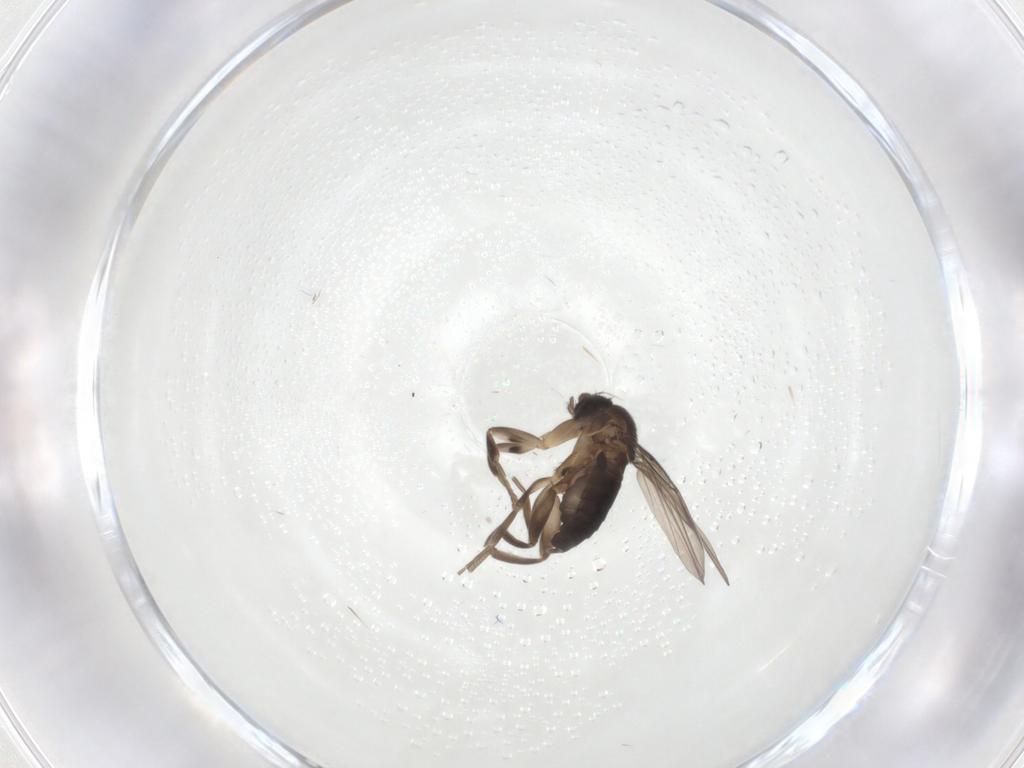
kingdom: Animalia
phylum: Arthropoda
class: Insecta
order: Diptera
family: Phoridae
